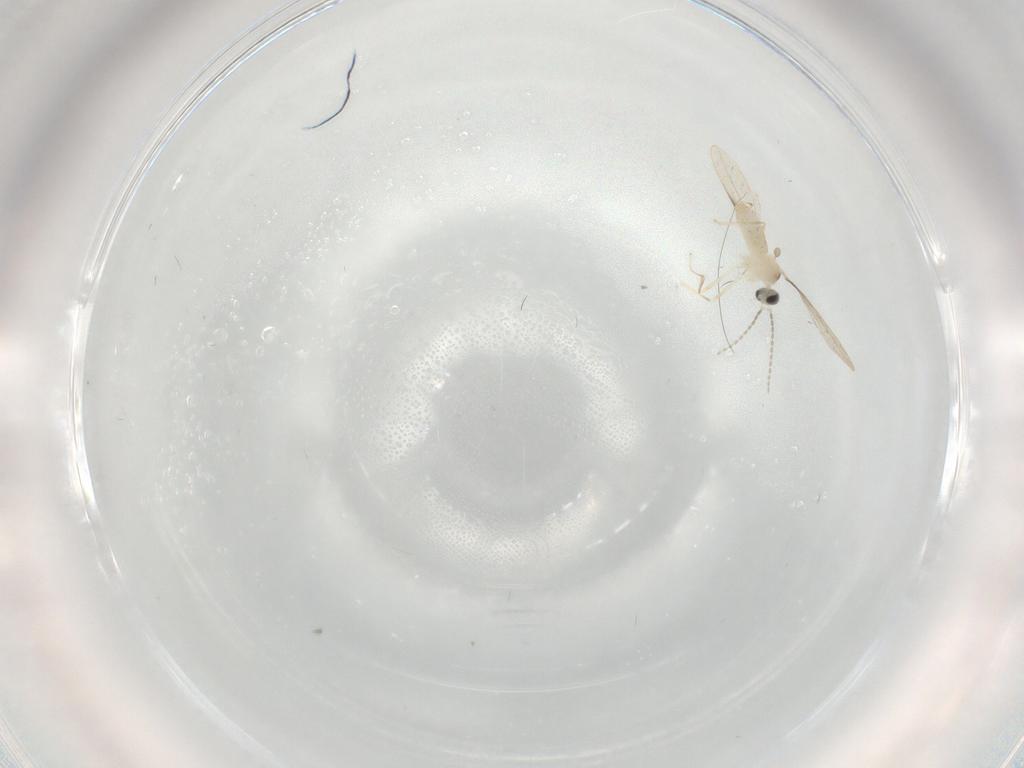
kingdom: Animalia
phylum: Arthropoda
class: Insecta
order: Diptera
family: Cecidomyiidae
